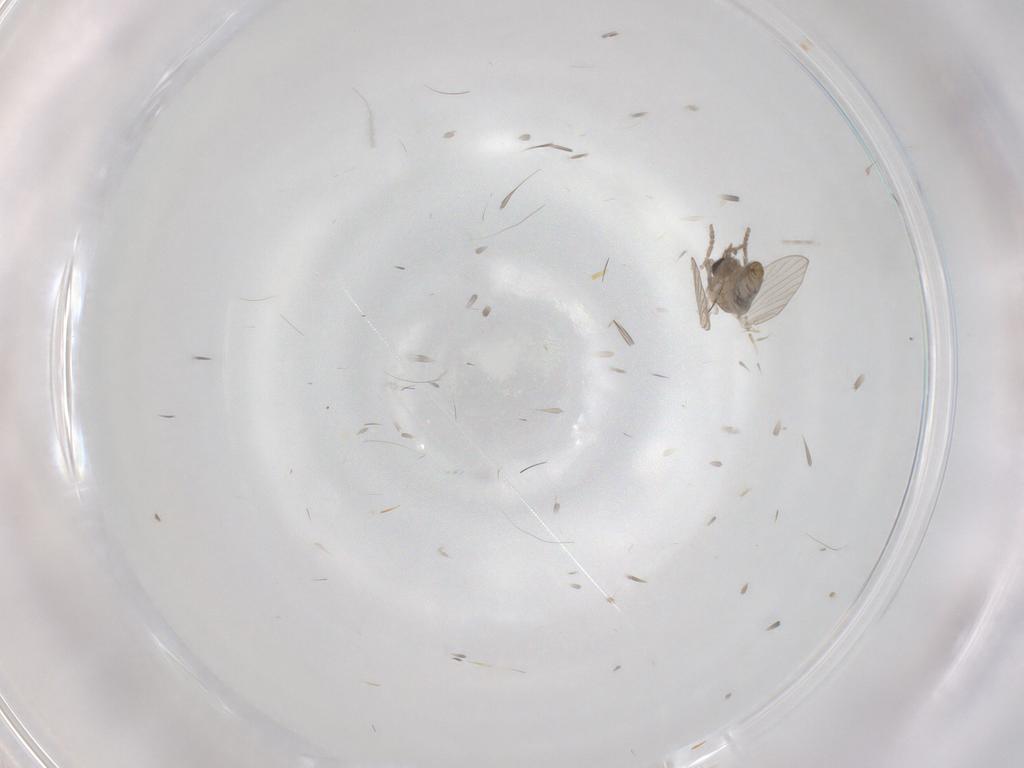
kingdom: Animalia
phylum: Arthropoda
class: Insecta
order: Diptera
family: Psychodidae
